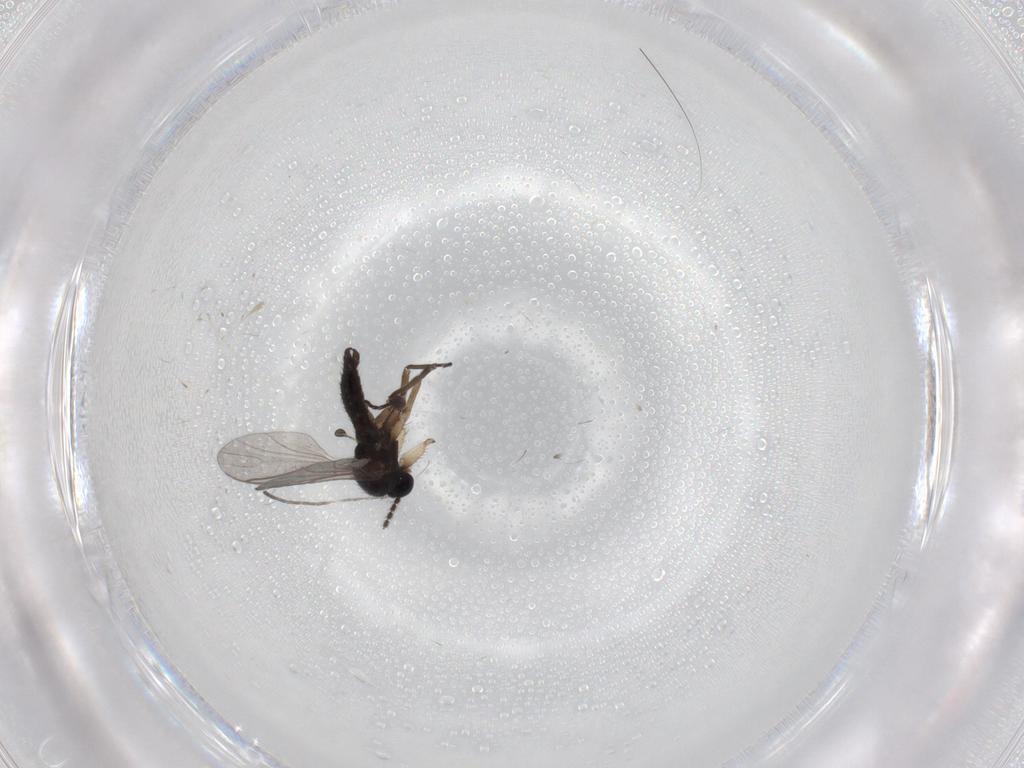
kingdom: Animalia
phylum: Arthropoda
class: Insecta
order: Diptera
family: Sciaridae
